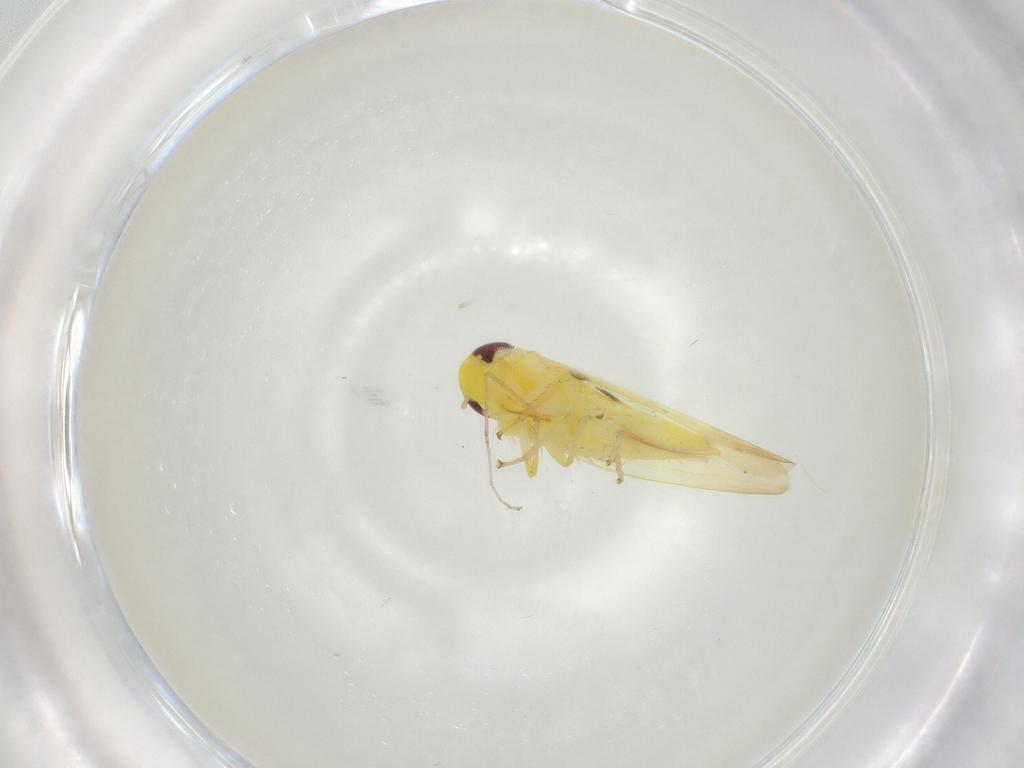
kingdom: Animalia
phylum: Arthropoda
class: Insecta
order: Hemiptera
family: Cicadellidae
